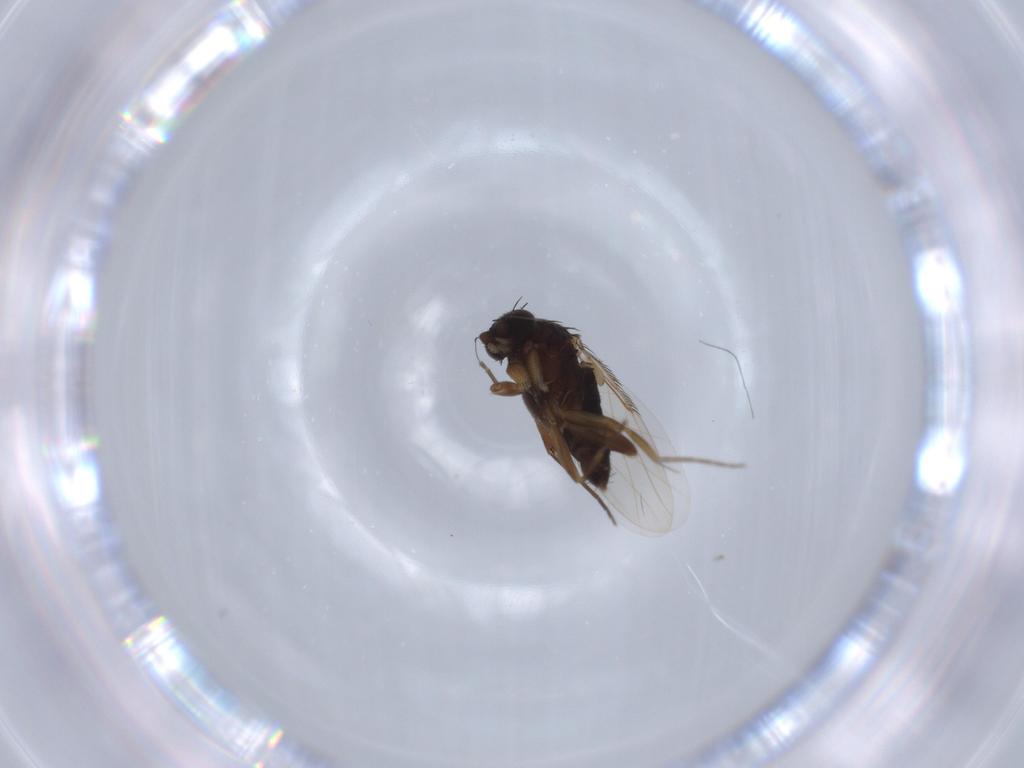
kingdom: Animalia
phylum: Arthropoda
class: Insecta
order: Diptera
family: Phoridae
